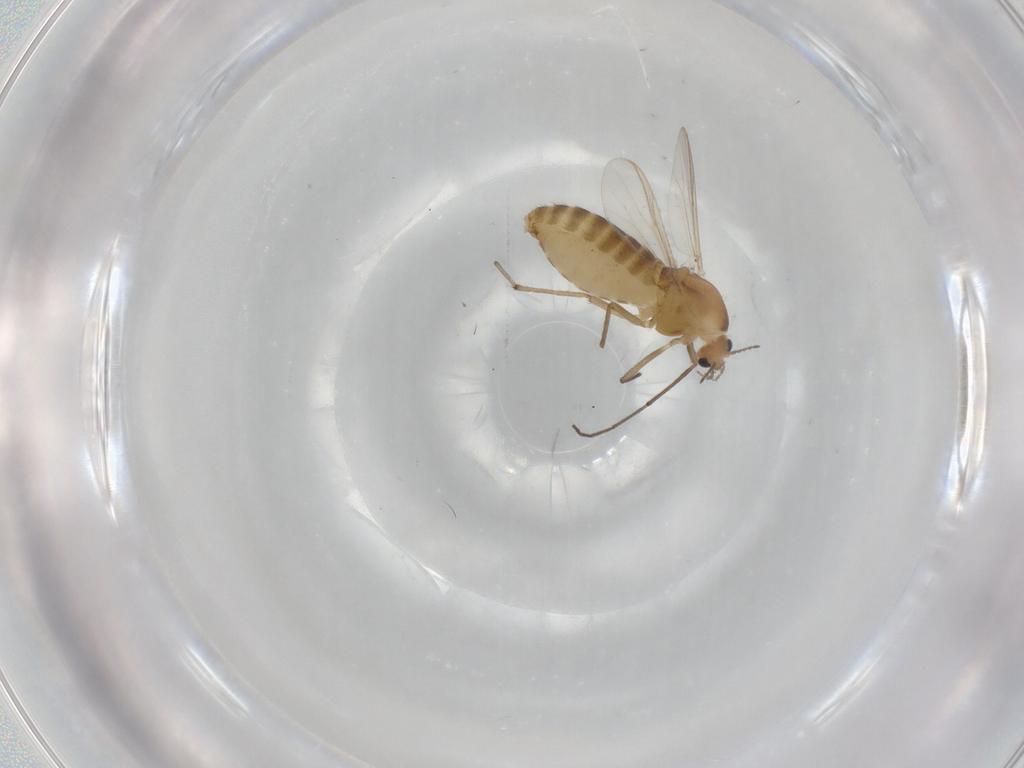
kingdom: Animalia
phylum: Arthropoda
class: Insecta
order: Diptera
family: Chironomidae
